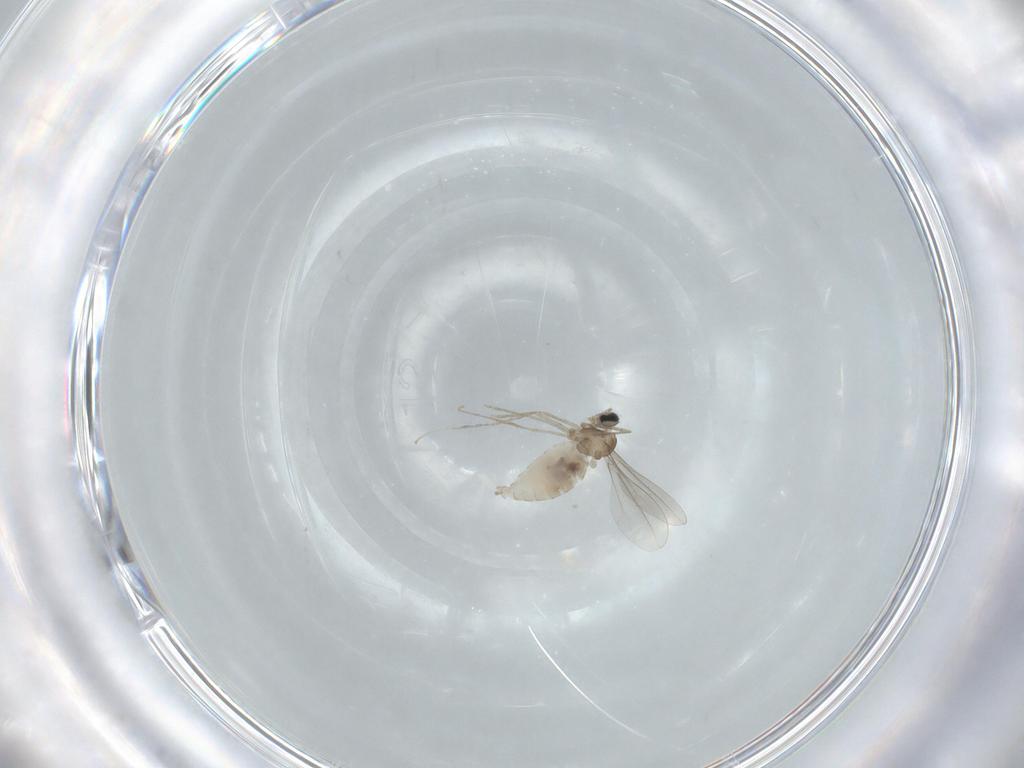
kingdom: Animalia
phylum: Arthropoda
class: Insecta
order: Diptera
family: Cecidomyiidae
